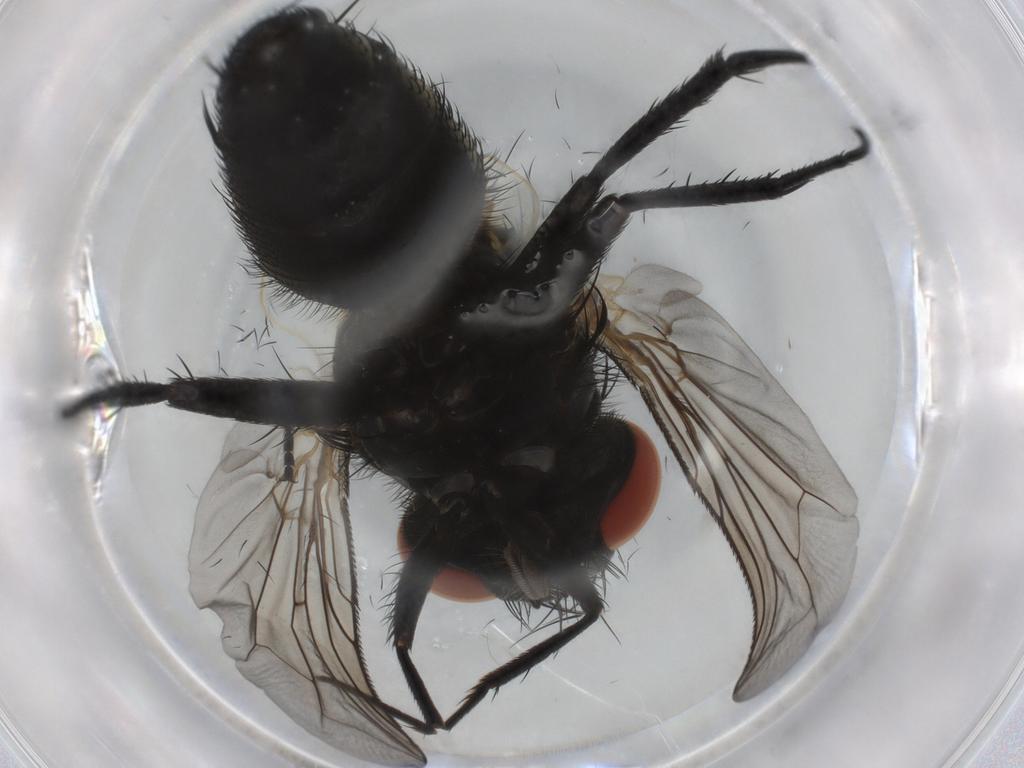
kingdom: Animalia
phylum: Arthropoda
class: Insecta
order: Diptera
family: Sarcophagidae
